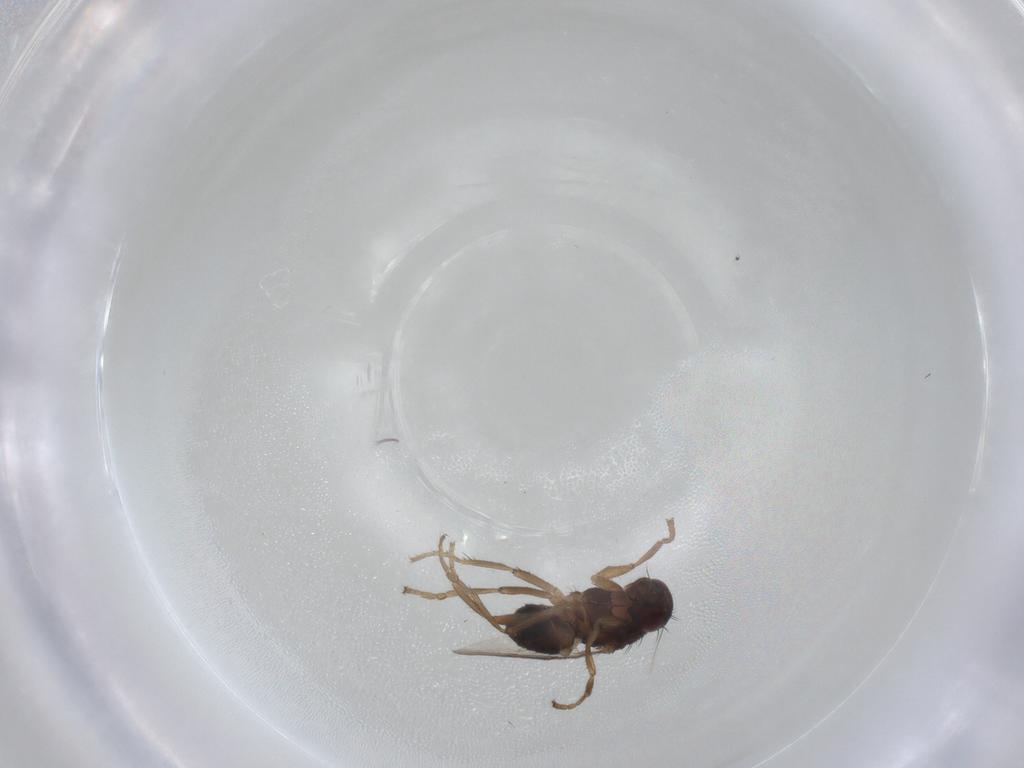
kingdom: Animalia
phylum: Arthropoda
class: Insecta
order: Diptera
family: Sphaeroceridae
